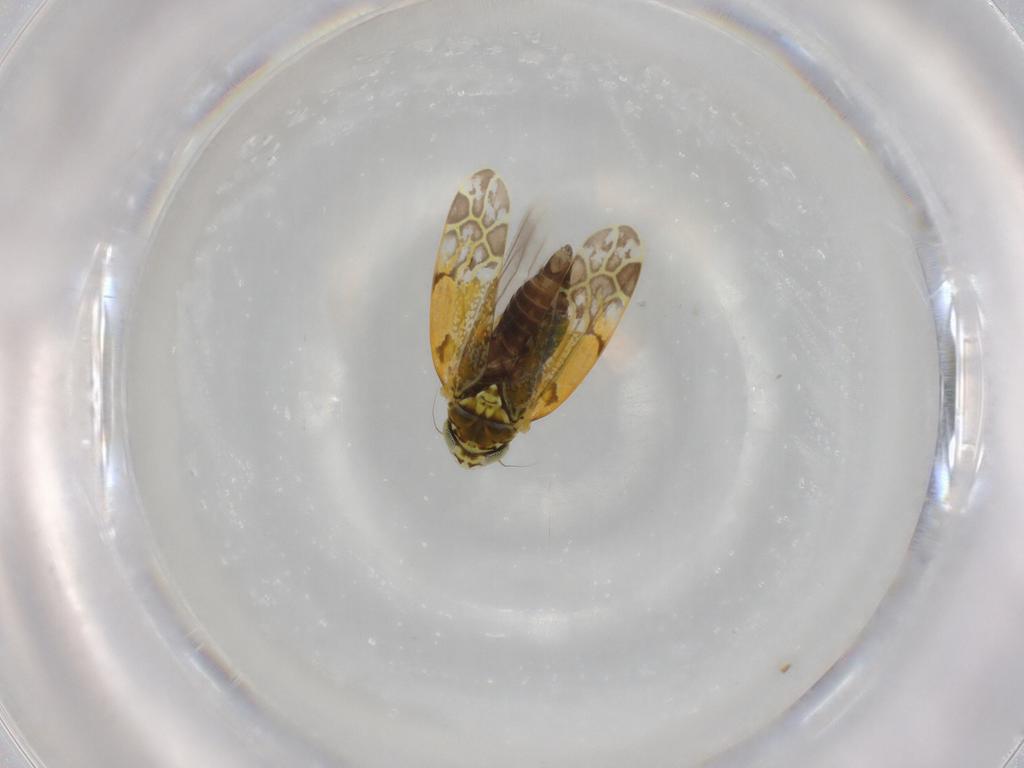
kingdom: Animalia
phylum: Arthropoda
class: Insecta
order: Hemiptera
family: Cicadellidae
